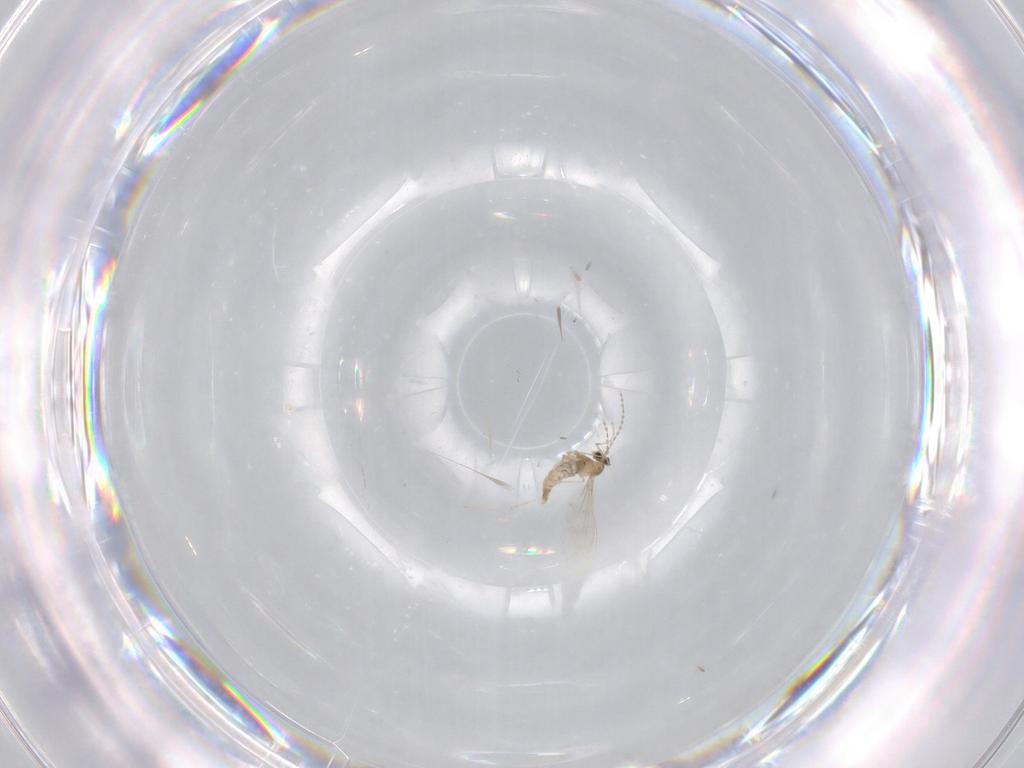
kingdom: Animalia
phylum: Arthropoda
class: Insecta
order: Diptera
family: Cecidomyiidae
